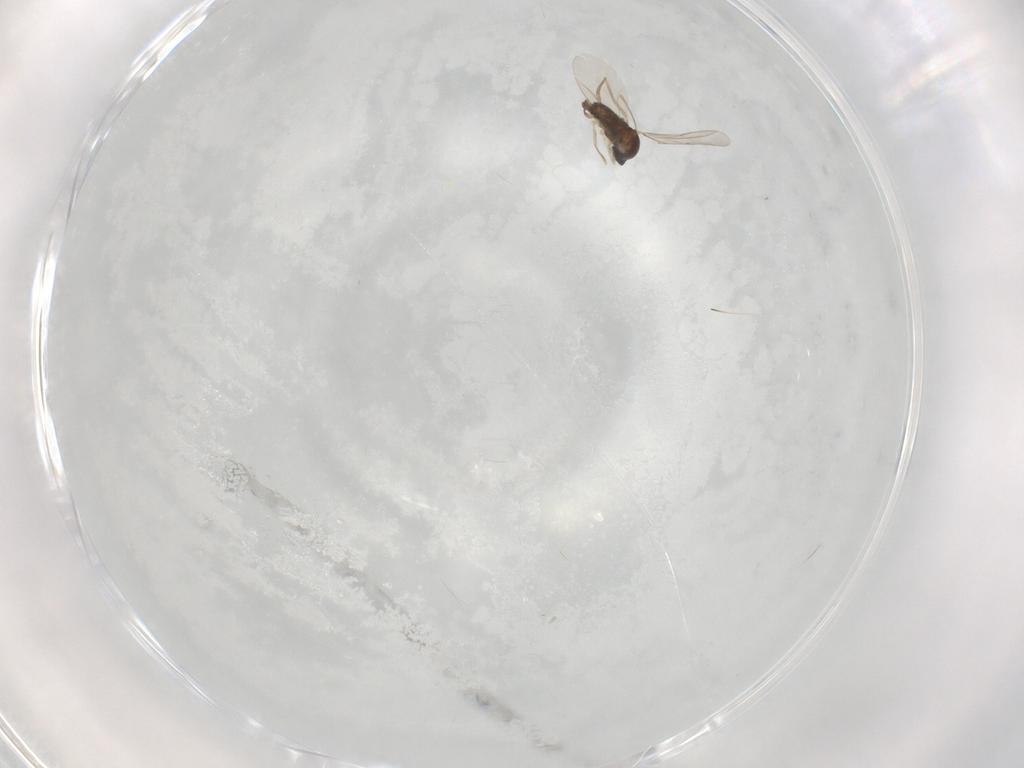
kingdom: Animalia
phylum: Arthropoda
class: Insecta
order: Diptera
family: Cecidomyiidae
